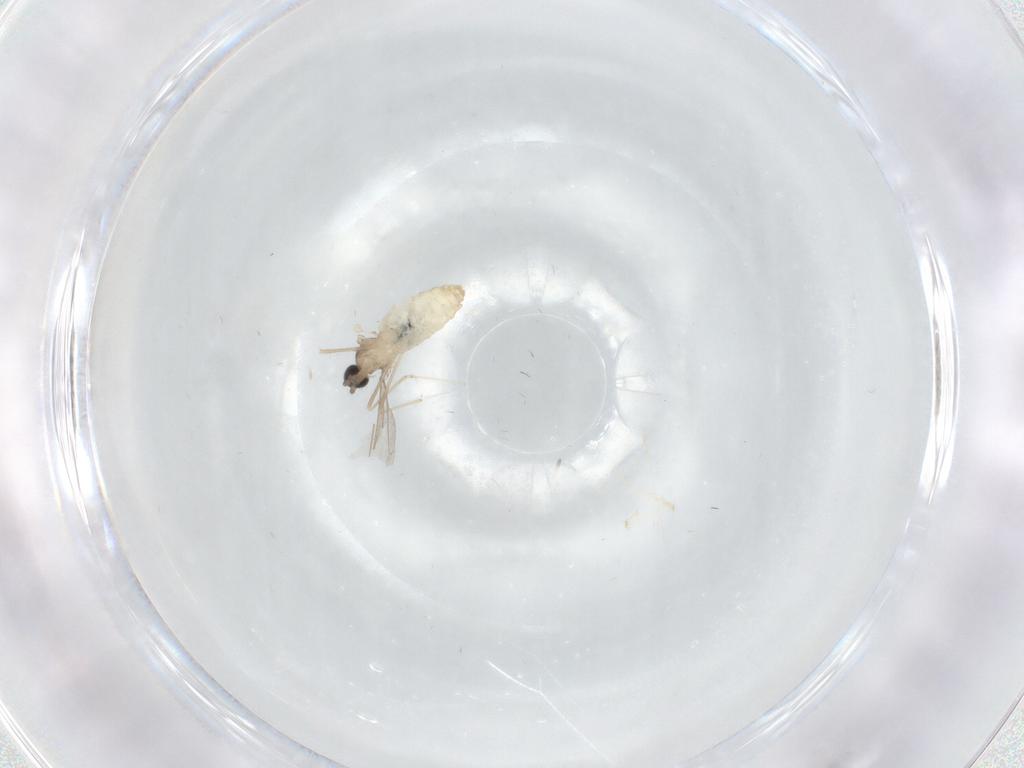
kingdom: Animalia
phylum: Arthropoda
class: Insecta
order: Diptera
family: Cecidomyiidae
